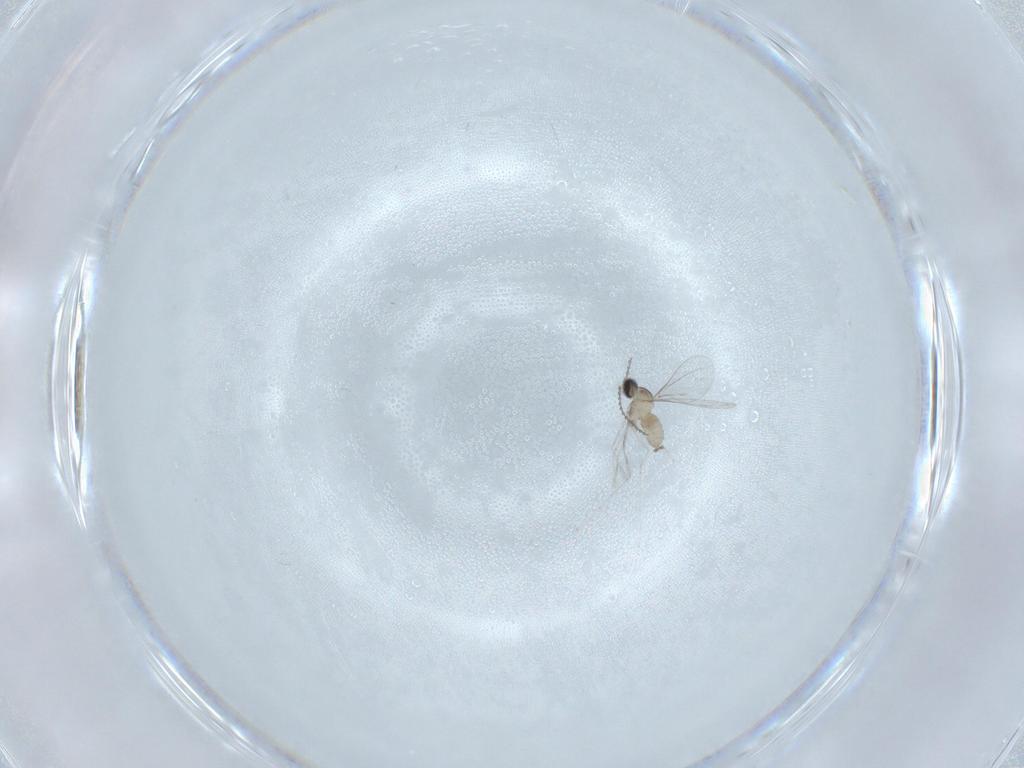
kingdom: Animalia
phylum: Arthropoda
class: Insecta
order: Diptera
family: Cecidomyiidae
